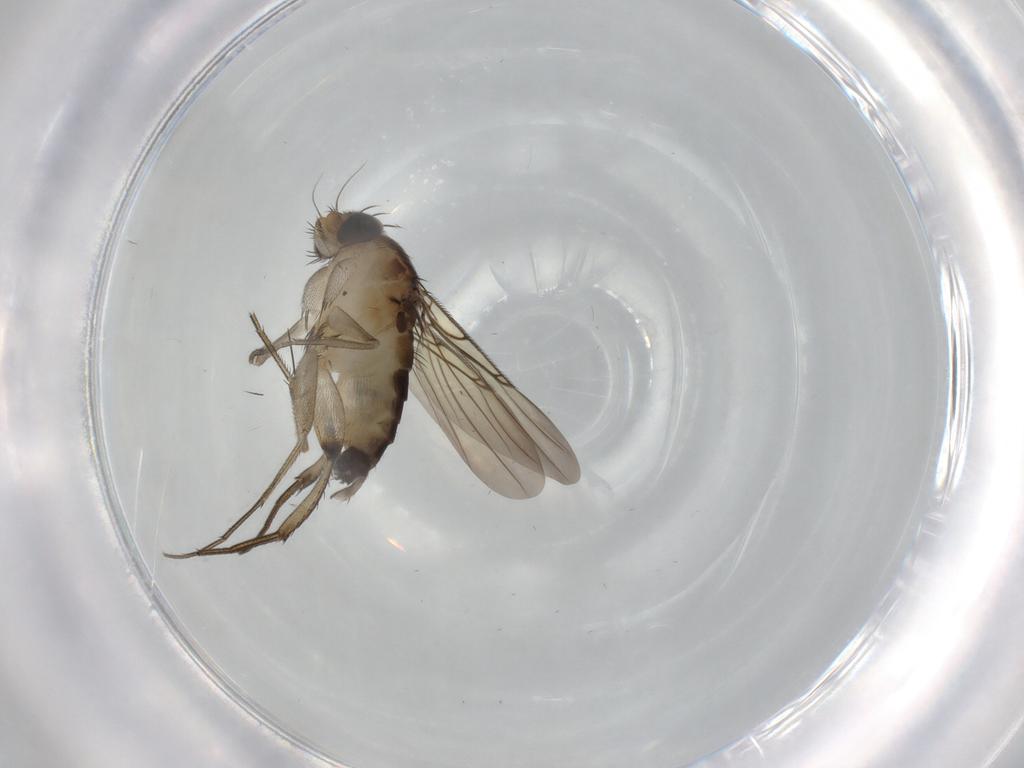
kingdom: Animalia
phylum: Arthropoda
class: Insecta
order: Diptera
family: Phoridae
